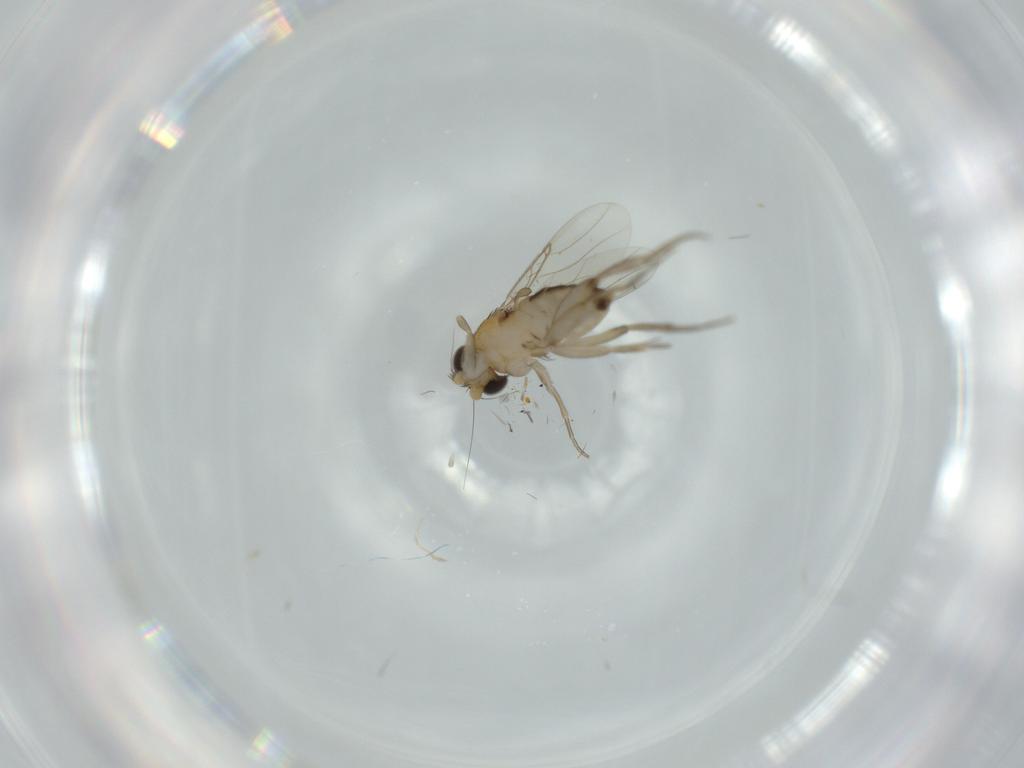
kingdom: Animalia
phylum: Arthropoda
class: Insecta
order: Diptera
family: Phoridae
